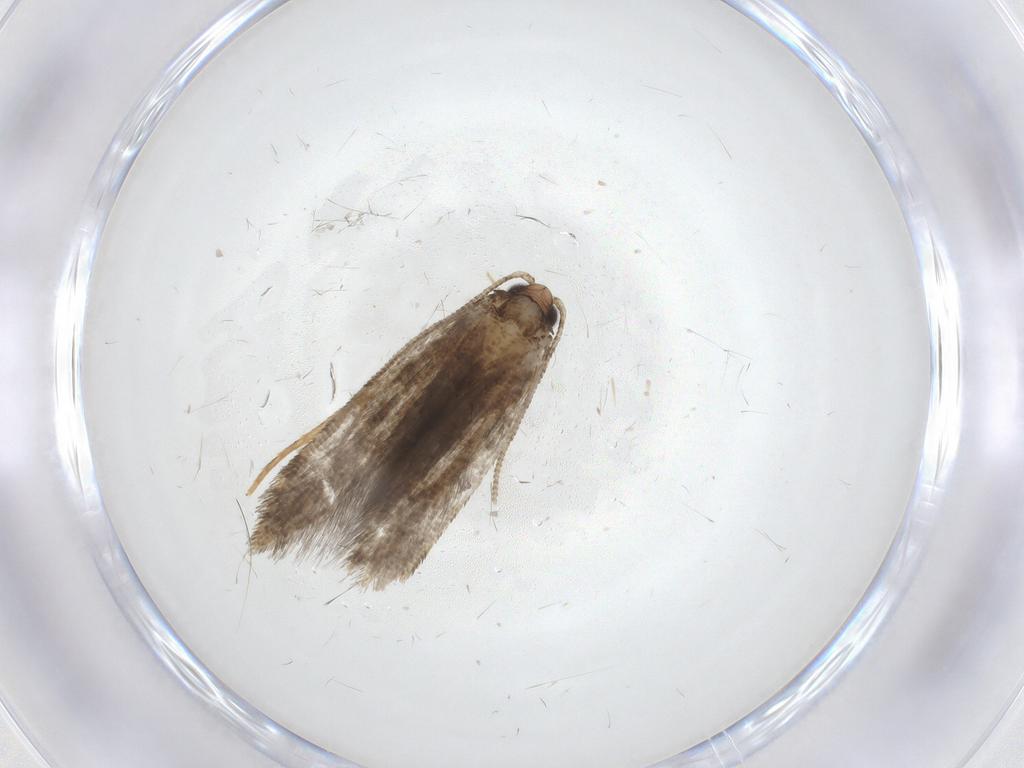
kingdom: Animalia
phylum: Arthropoda
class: Insecta
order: Lepidoptera
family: Tineidae
